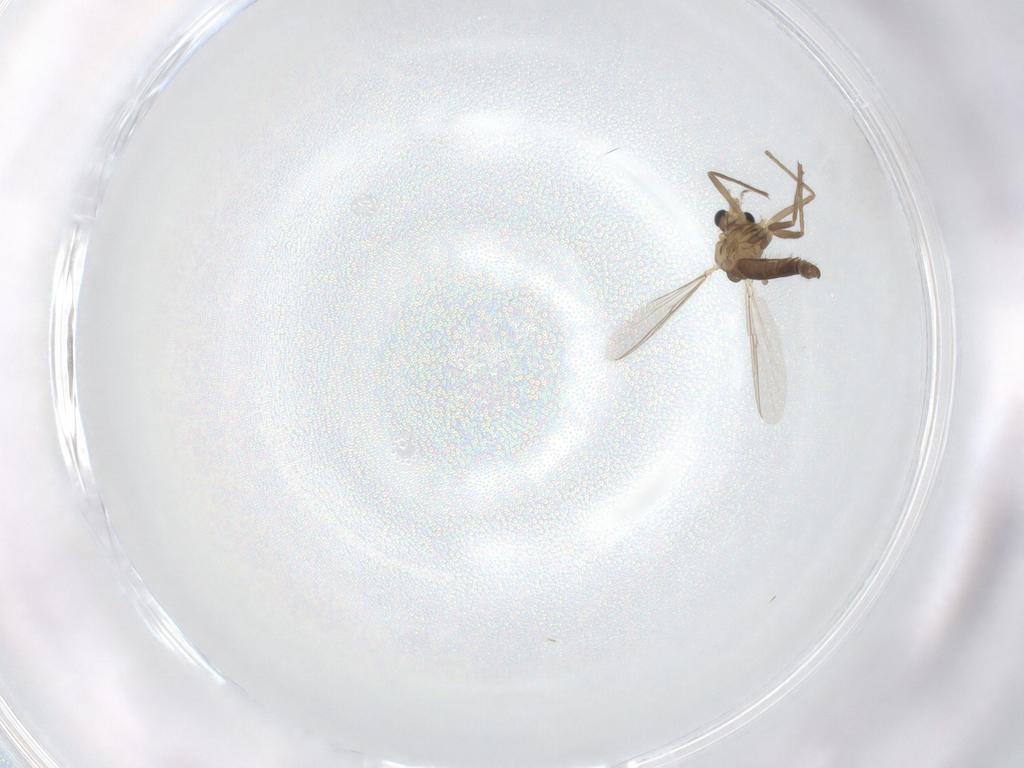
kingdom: Animalia
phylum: Arthropoda
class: Insecta
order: Diptera
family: Chironomidae
